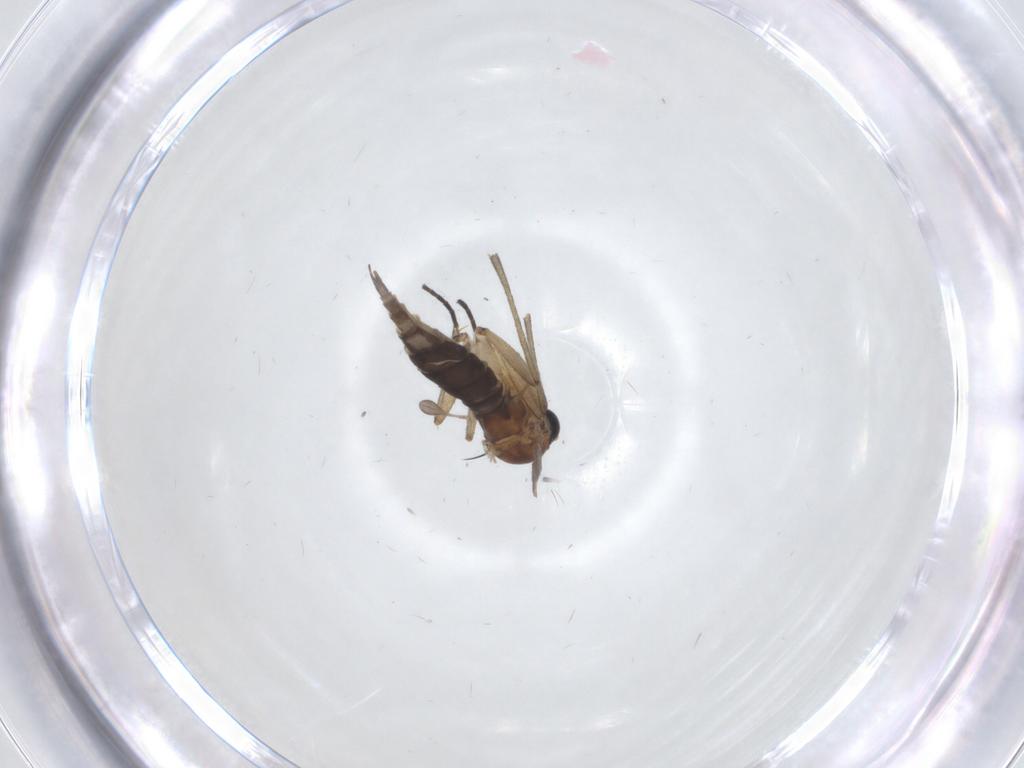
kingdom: Animalia
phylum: Arthropoda
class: Insecta
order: Diptera
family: Sciaridae
